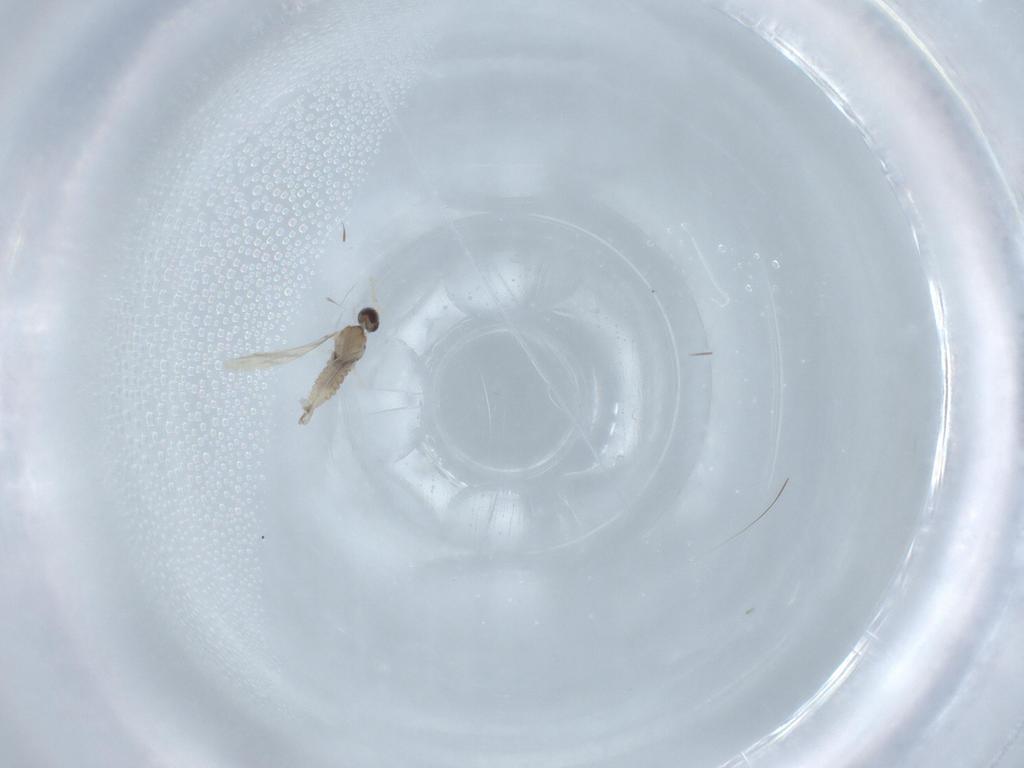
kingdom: Animalia
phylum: Arthropoda
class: Insecta
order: Diptera
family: Cecidomyiidae
